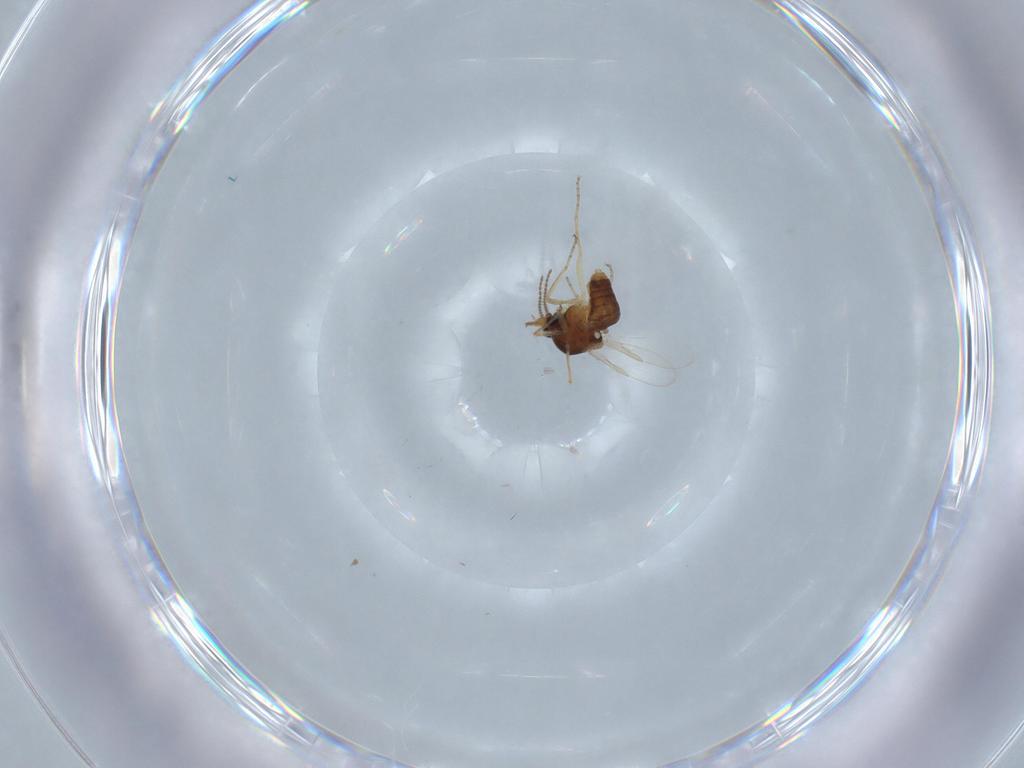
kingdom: Animalia
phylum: Arthropoda
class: Insecta
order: Diptera
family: Ceratopogonidae
